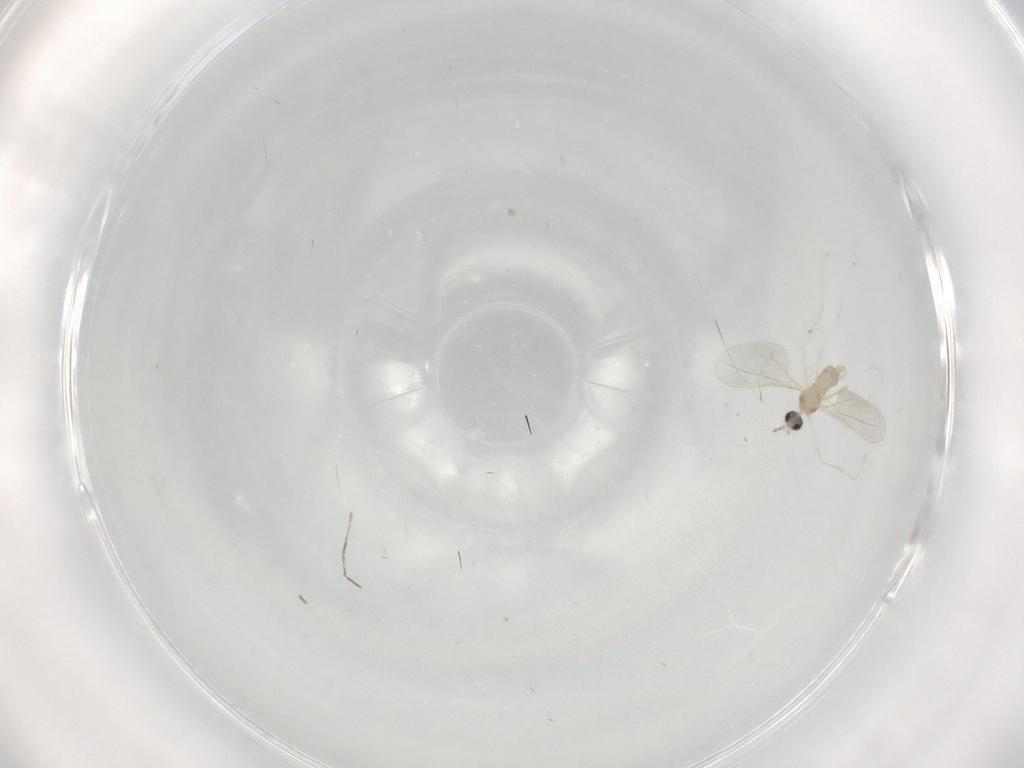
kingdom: Animalia
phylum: Arthropoda
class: Insecta
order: Diptera
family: Cecidomyiidae
